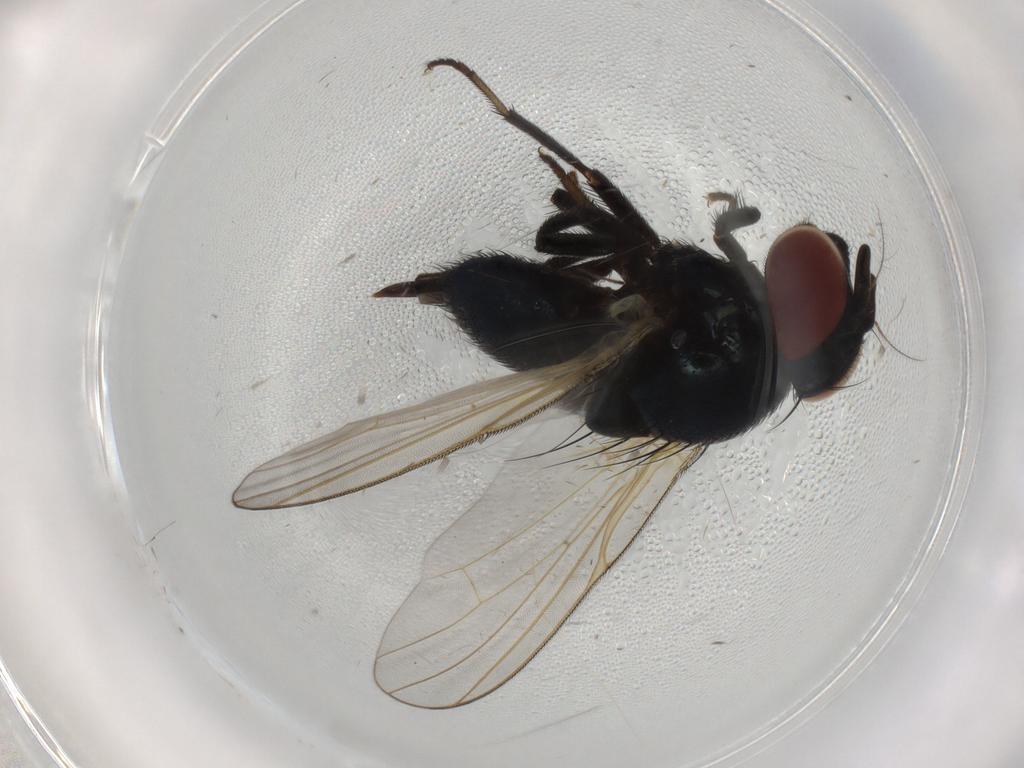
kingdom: Animalia
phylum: Arthropoda
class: Insecta
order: Diptera
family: Lonchaeidae
